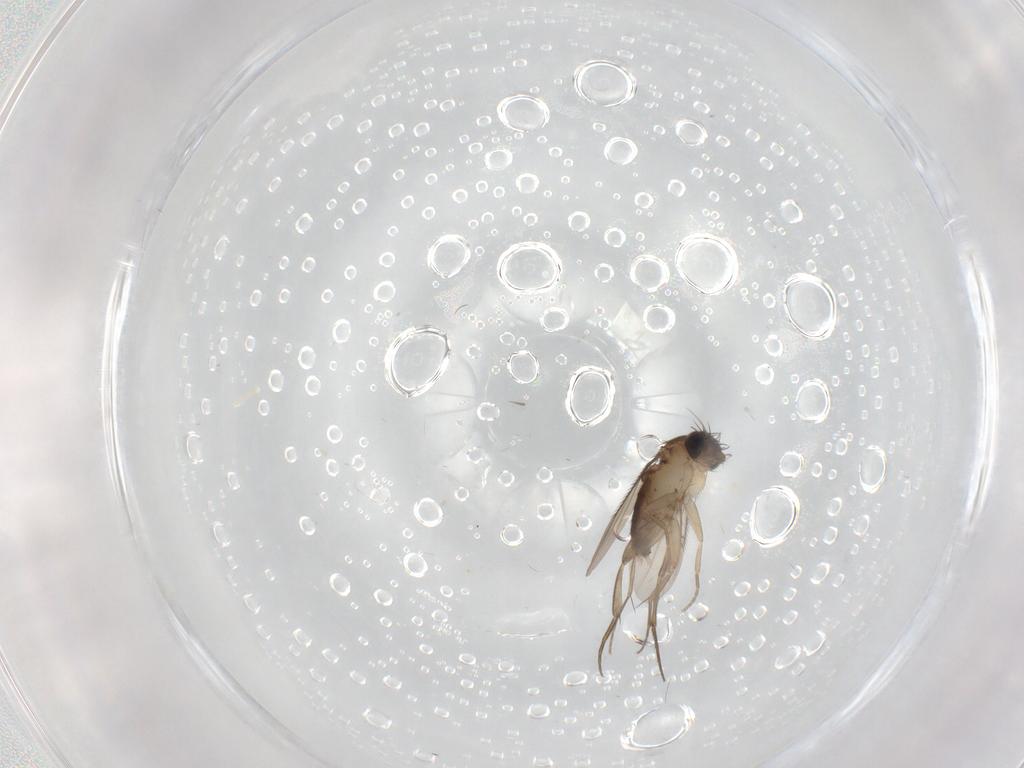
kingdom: Animalia
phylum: Arthropoda
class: Insecta
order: Diptera
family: Phoridae
